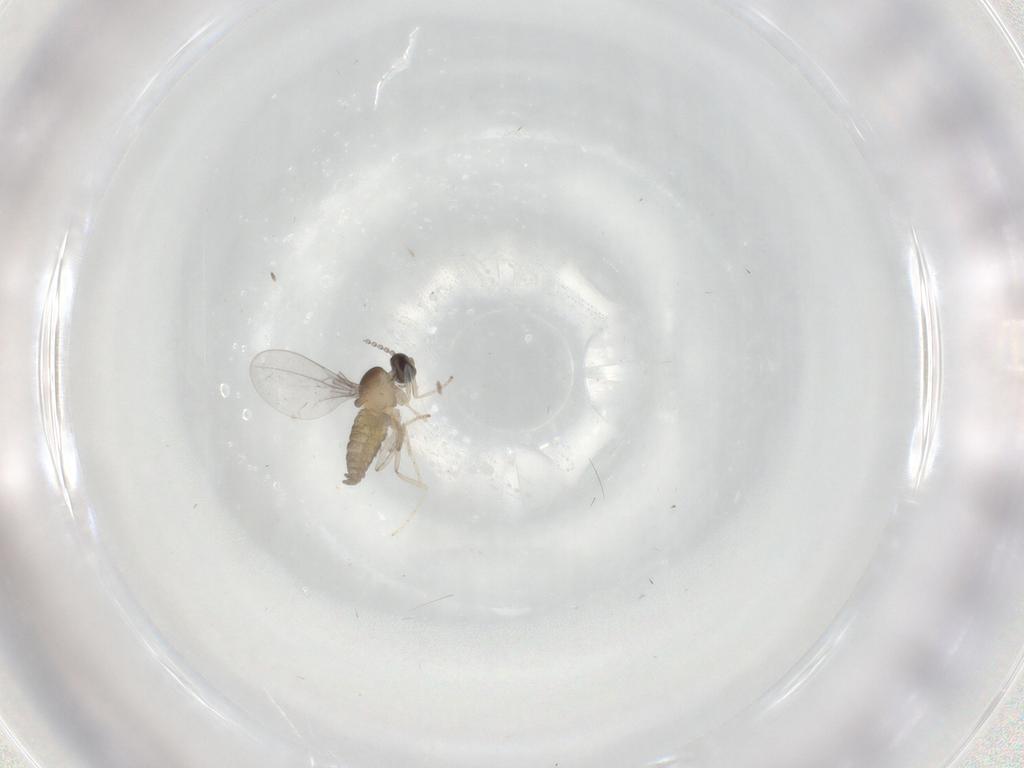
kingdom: Animalia
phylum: Arthropoda
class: Insecta
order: Diptera
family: Cecidomyiidae
